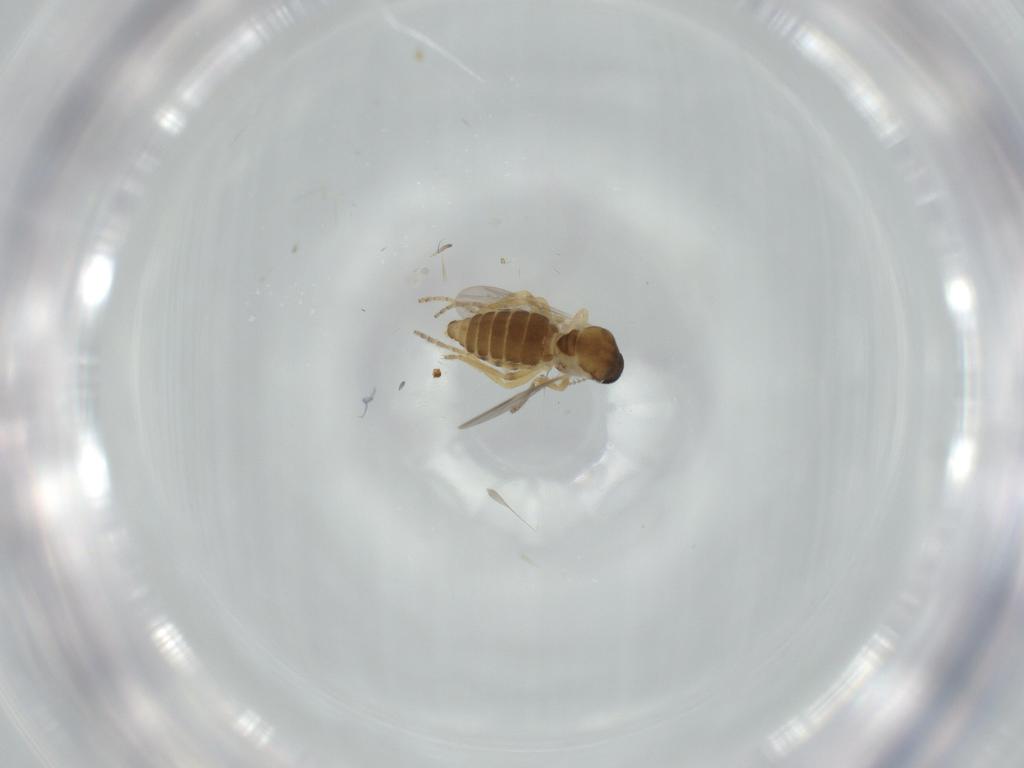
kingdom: Animalia
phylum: Arthropoda
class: Insecta
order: Diptera
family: Ceratopogonidae
